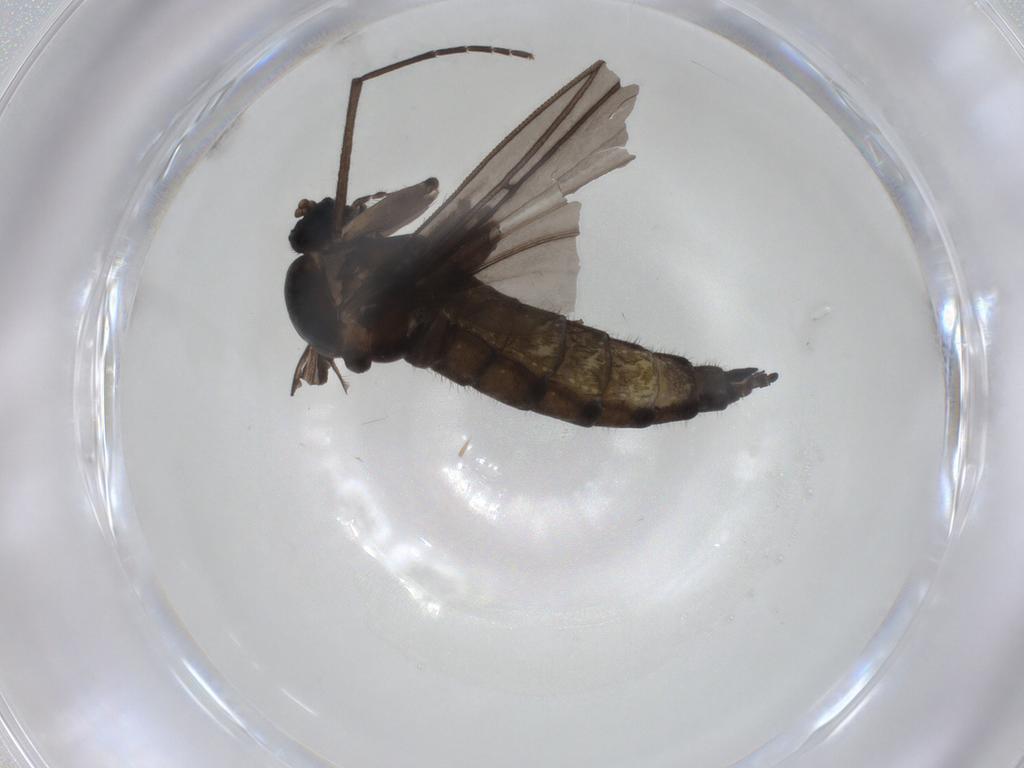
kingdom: Animalia
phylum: Arthropoda
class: Insecta
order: Diptera
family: Sciaridae
